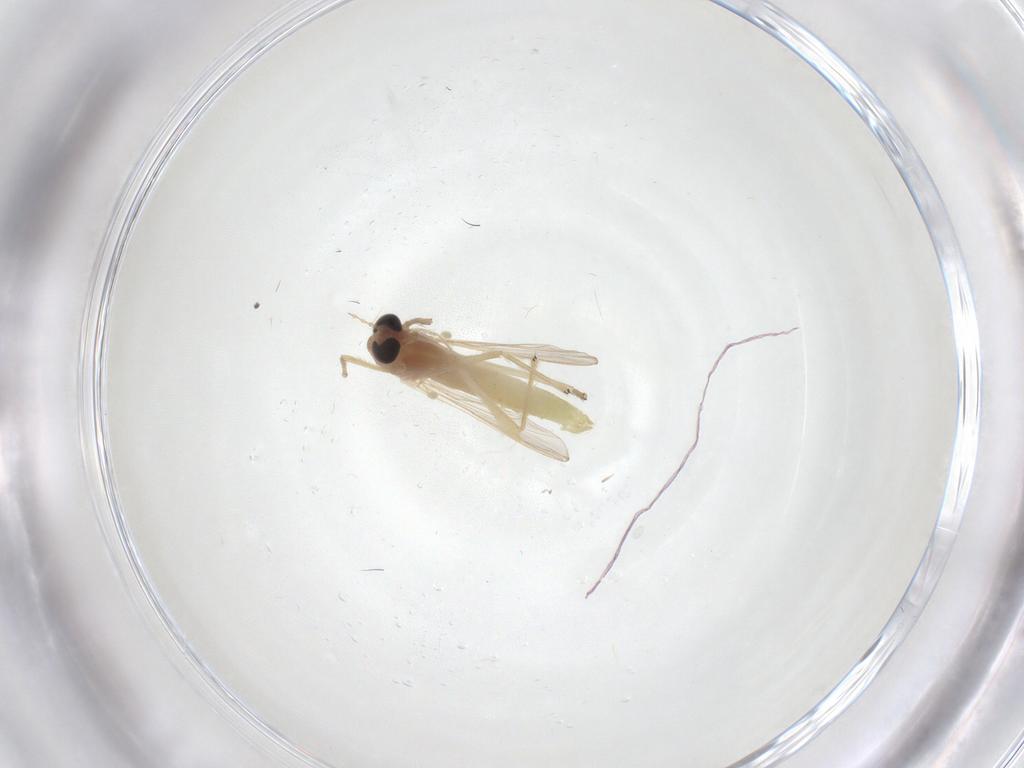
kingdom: Animalia
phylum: Arthropoda
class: Insecta
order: Diptera
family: Chironomidae
